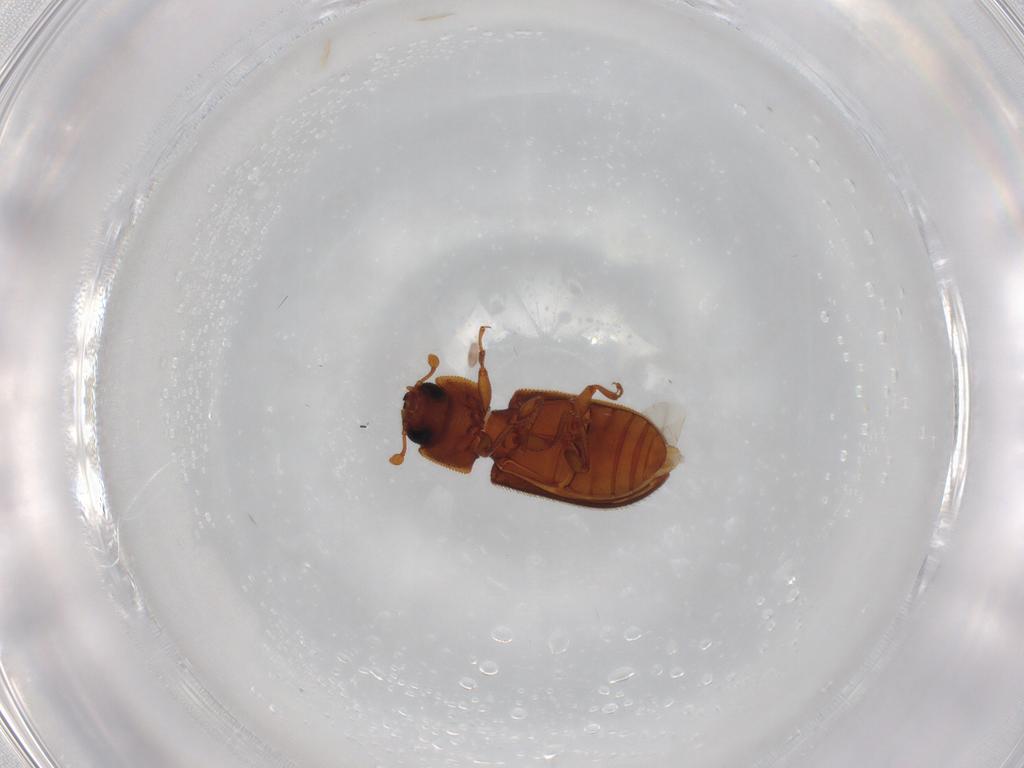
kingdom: Animalia
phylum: Arthropoda
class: Insecta
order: Coleoptera
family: Zopheridae
